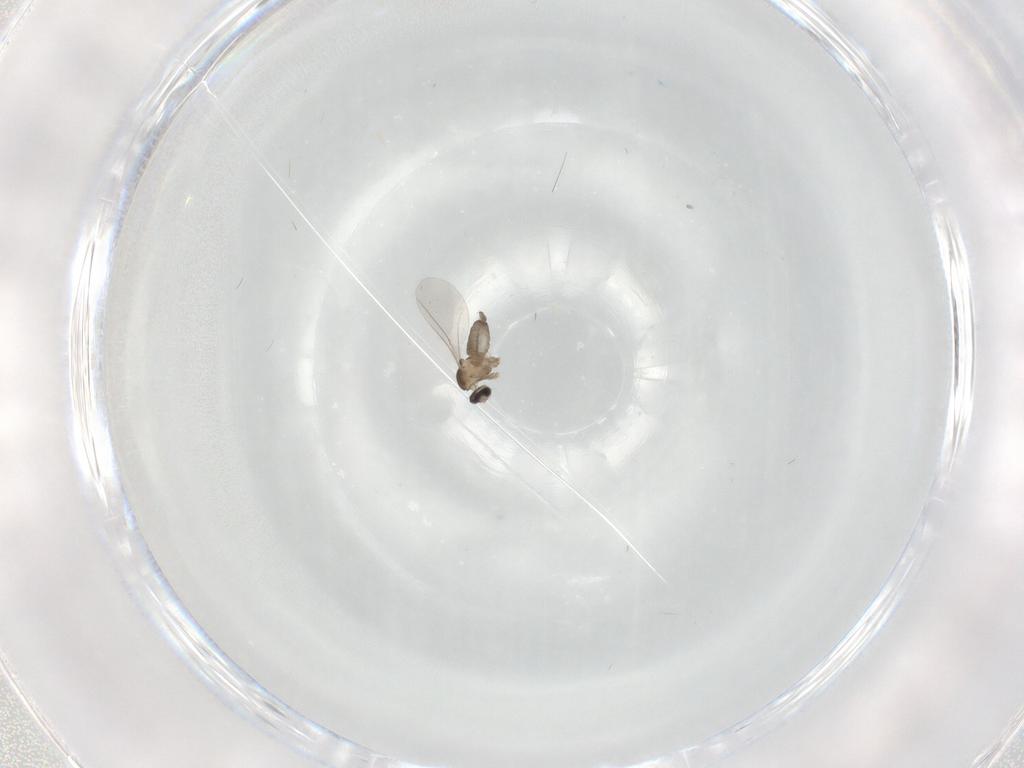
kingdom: Animalia
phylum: Arthropoda
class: Insecta
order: Diptera
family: Cecidomyiidae
